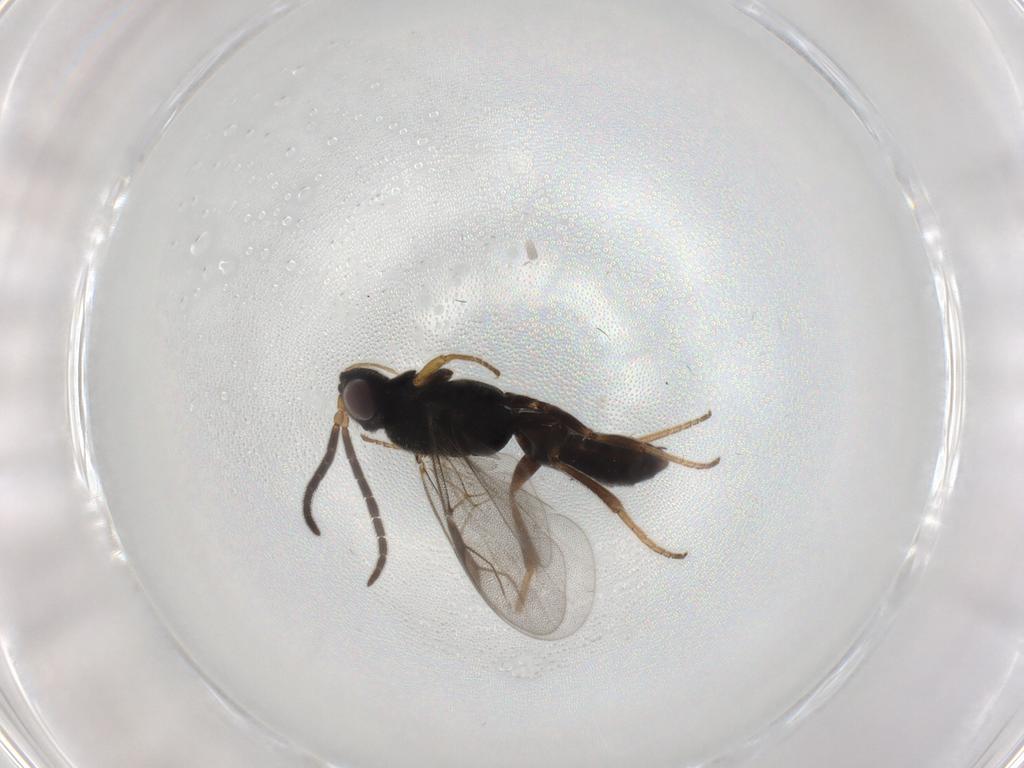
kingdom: Animalia
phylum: Arthropoda
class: Insecta
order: Hymenoptera
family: Dryinidae
